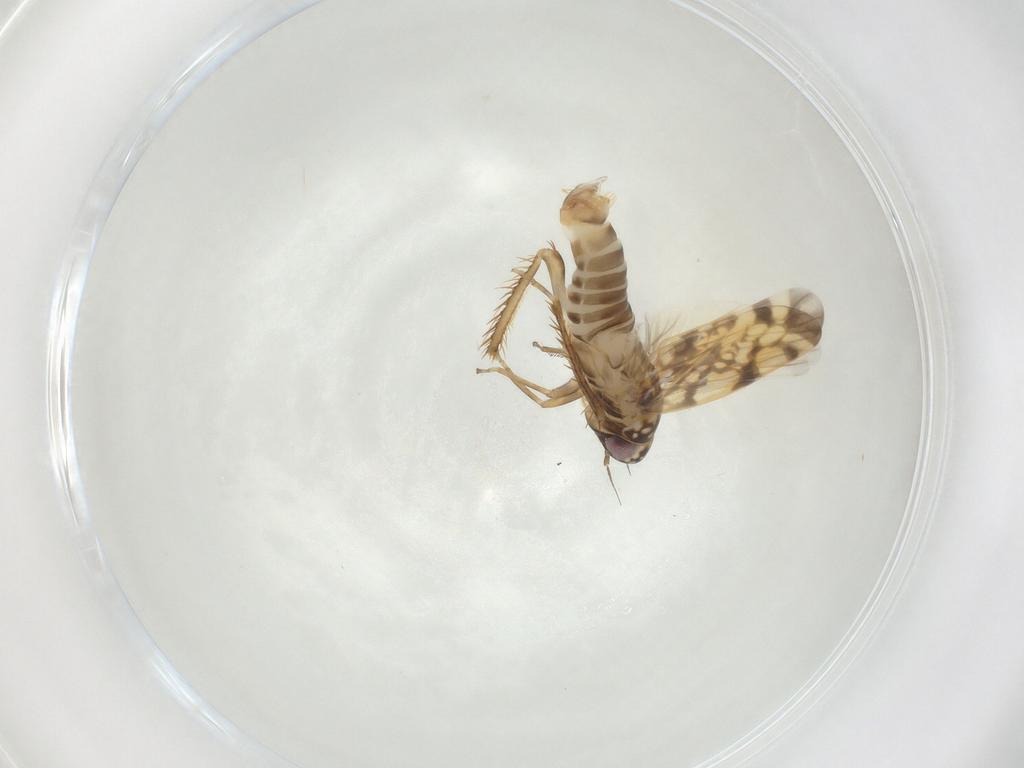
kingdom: Animalia
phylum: Arthropoda
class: Insecta
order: Hemiptera
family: Cicadellidae
